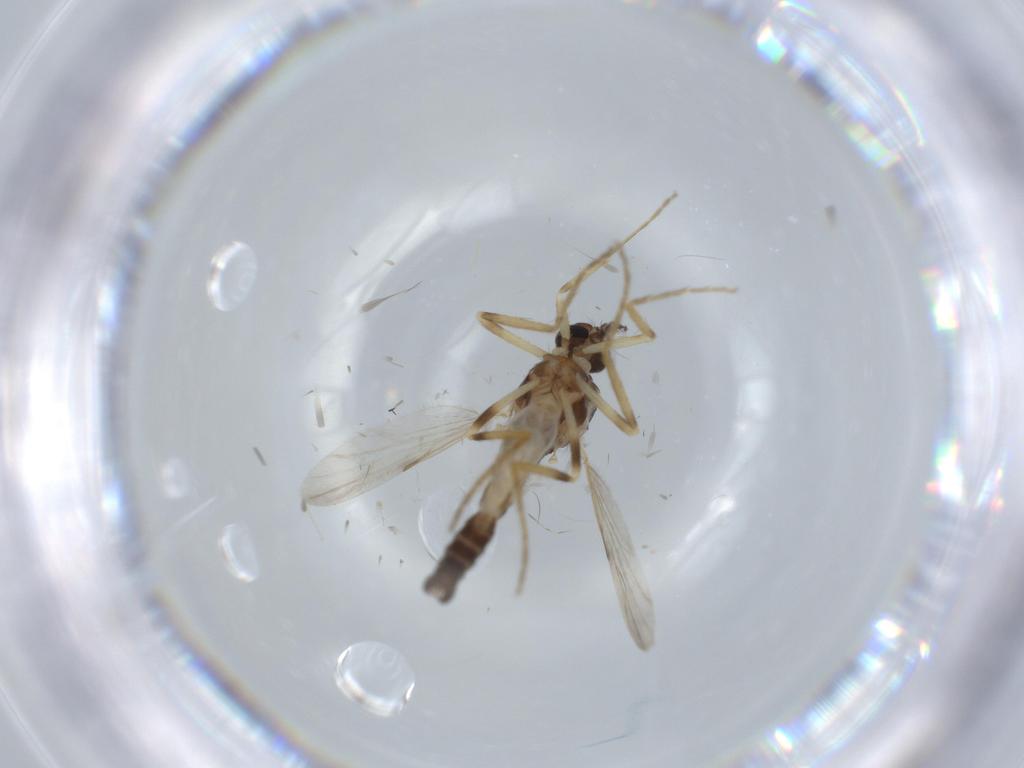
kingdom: Animalia
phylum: Arthropoda
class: Insecta
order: Diptera
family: Ceratopogonidae
